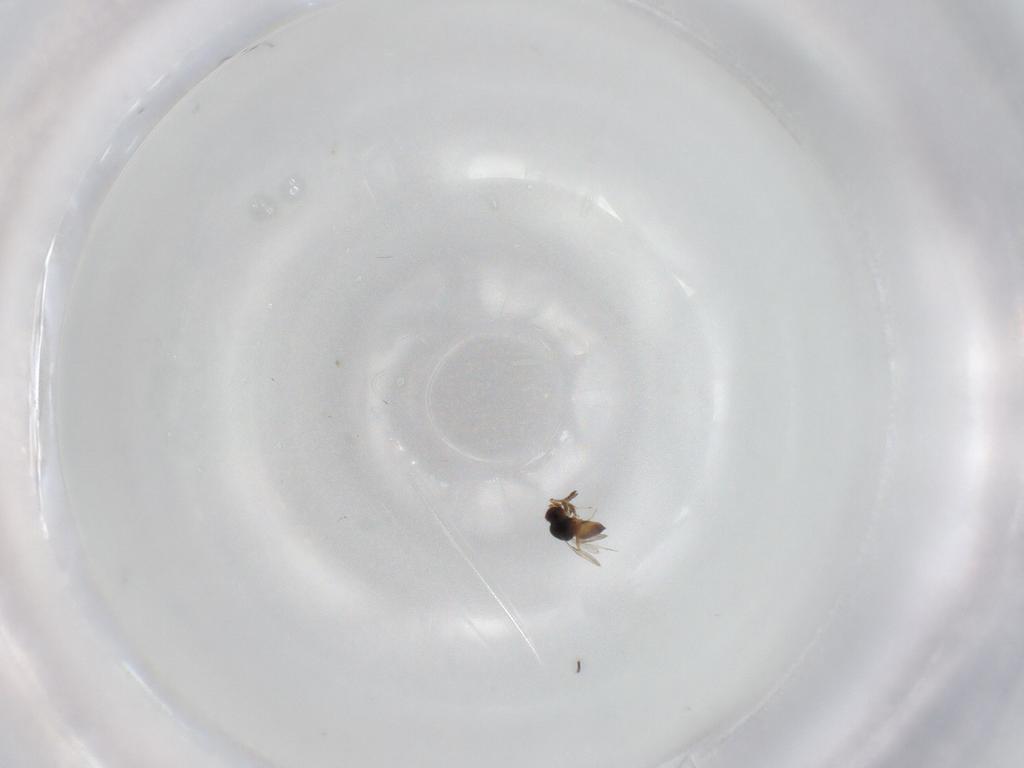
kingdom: Animalia
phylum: Arthropoda
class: Insecta
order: Hymenoptera
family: Formicidae
